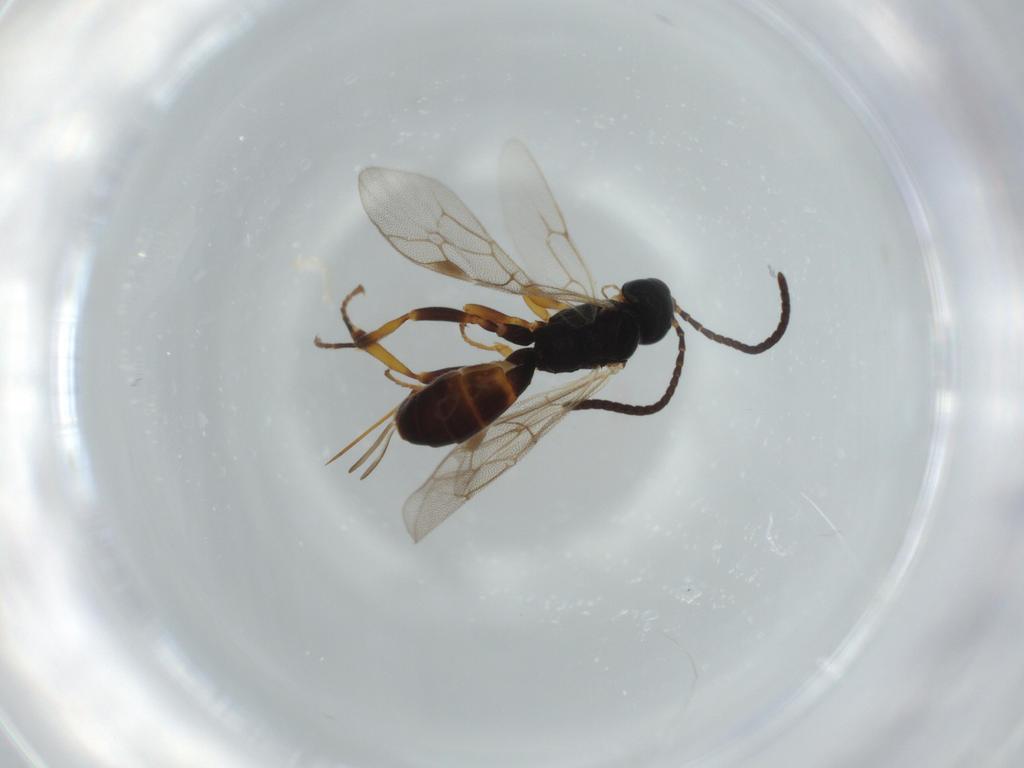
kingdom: Animalia
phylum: Arthropoda
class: Insecta
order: Hymenoptera
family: Ichneumonidae
